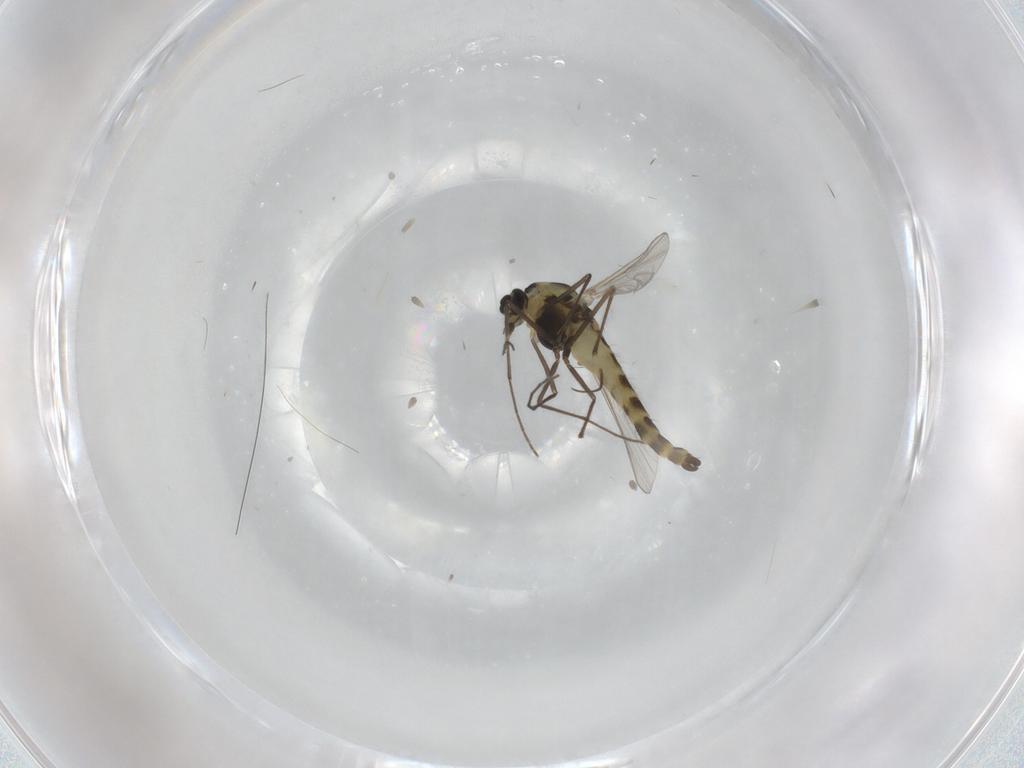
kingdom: Animalia
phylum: Arthropoda
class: Insecta
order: Diptera
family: Chironomidae
